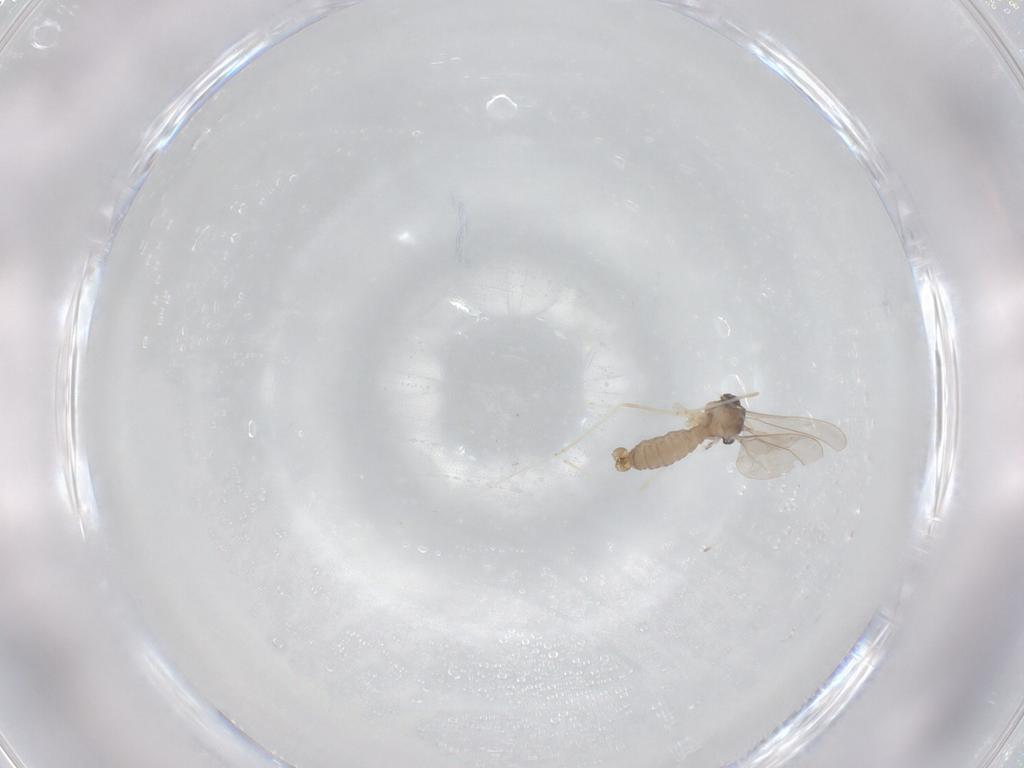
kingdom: Animalia
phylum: Arthropoda
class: Insecta
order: Diptera
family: Cecidomyiidae
